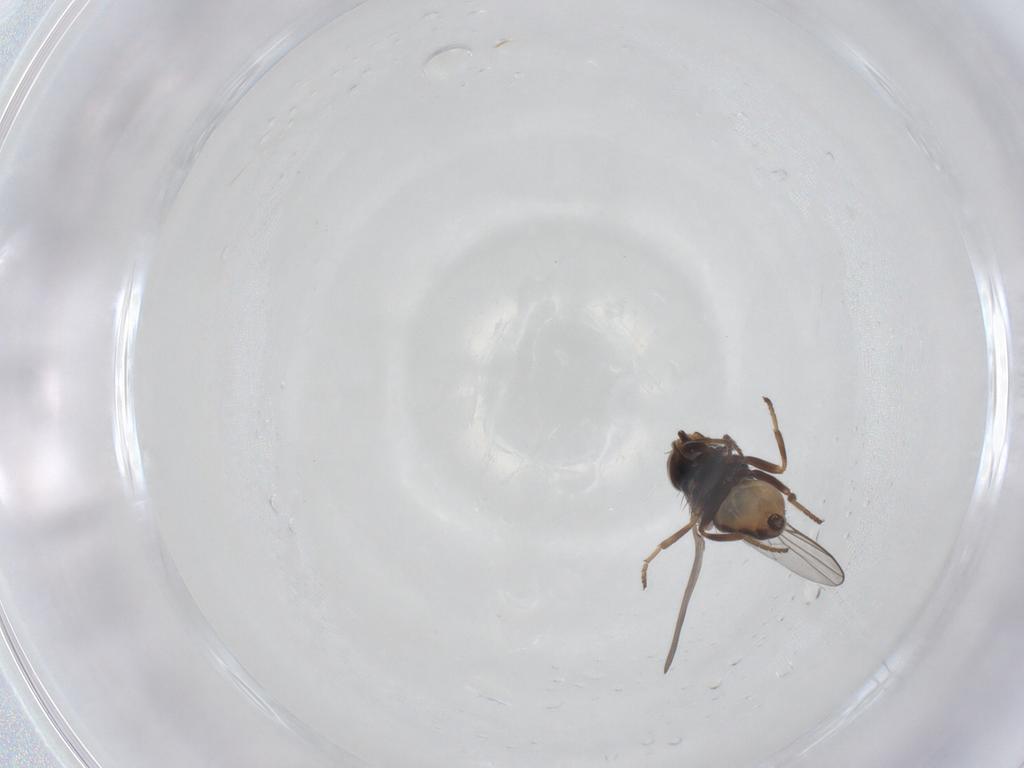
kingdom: Animalia
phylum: Arthropoda
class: Insecta
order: Diptera
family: Chloropidae
